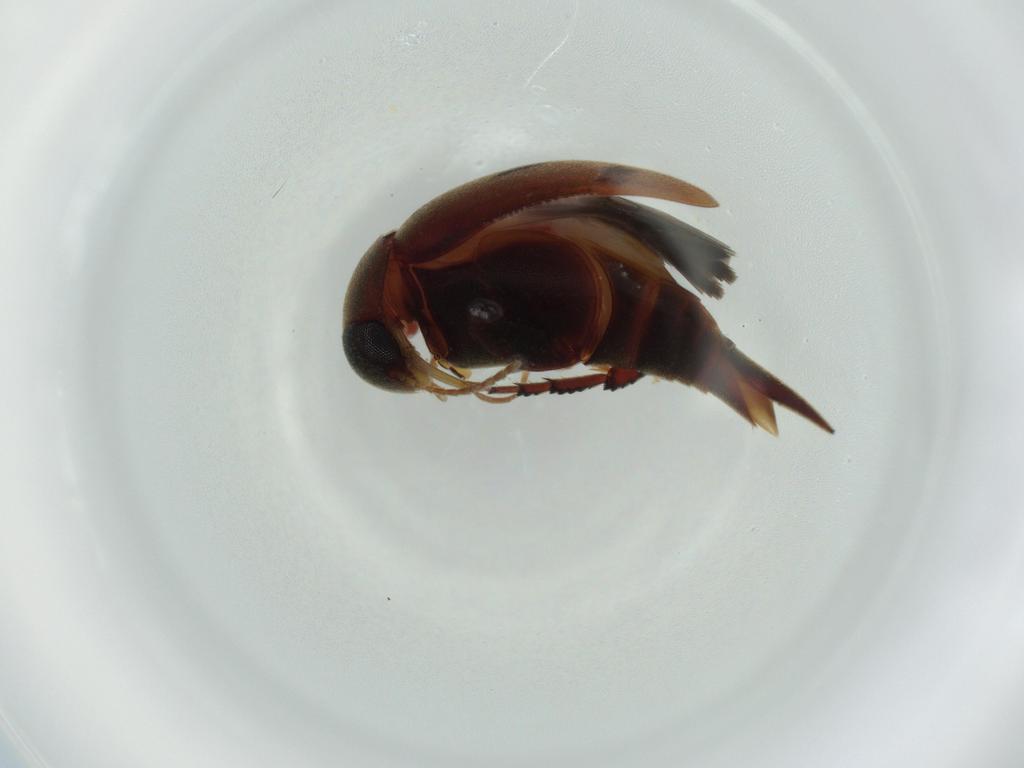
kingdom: Animalia
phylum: Arthropoda
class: Insecta
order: Coleoptera
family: Mordellidae
